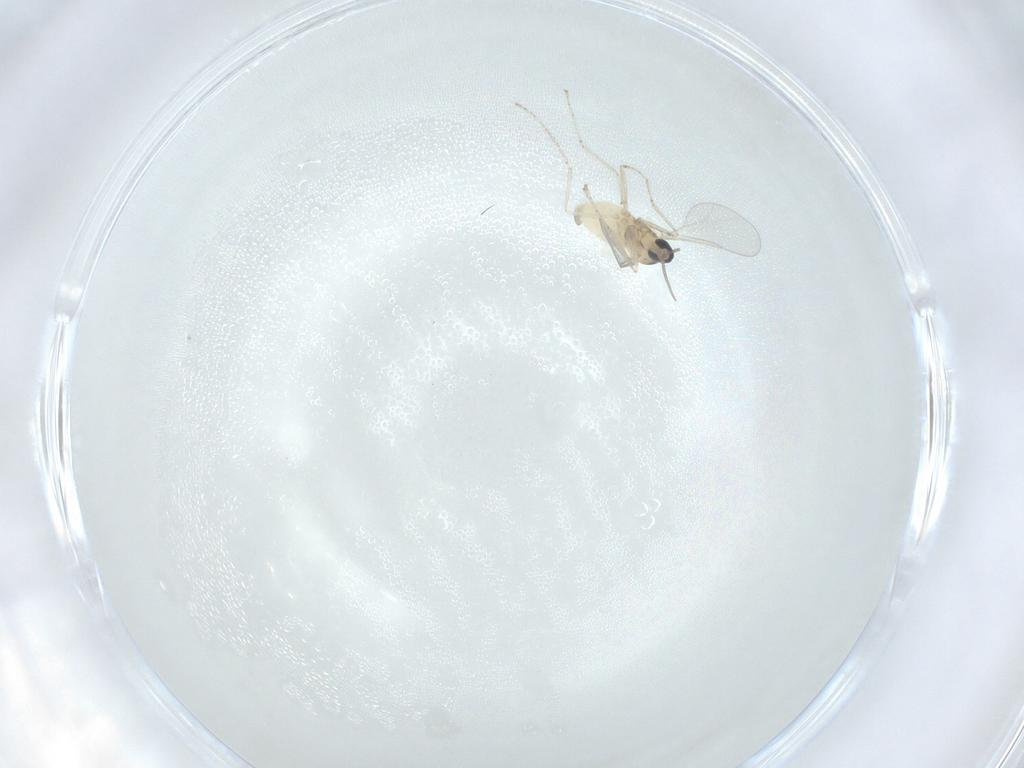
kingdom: Animalia
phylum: Arthropoda
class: Insecta
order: Diptera
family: Cecidomyiidae
